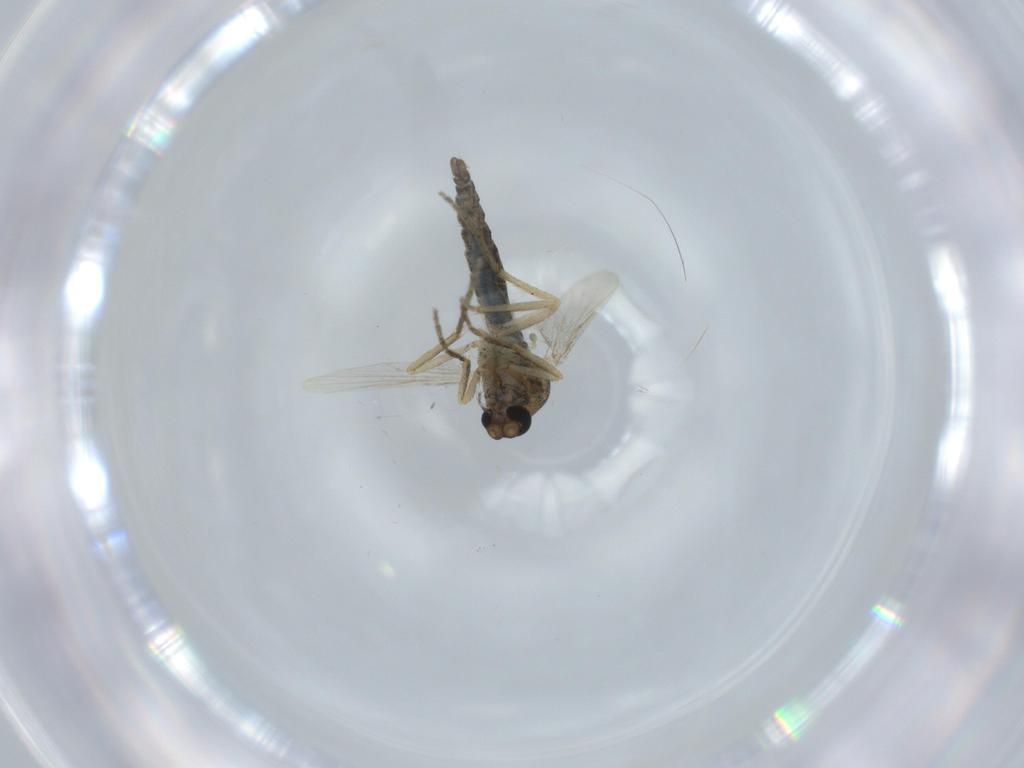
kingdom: Animalia
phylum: Arthropoda
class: Insecta
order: Diptera
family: Ceratopogonidae
